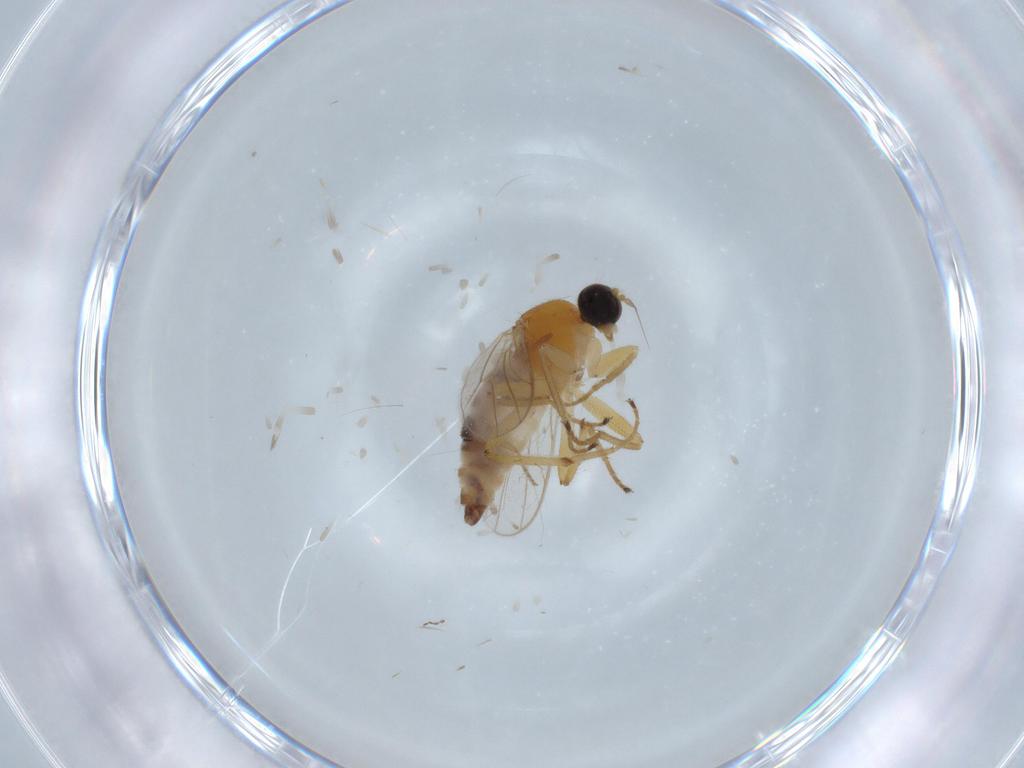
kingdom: Animalia
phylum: Arthropoda
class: Insecta
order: Diptera
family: Hybotidae
